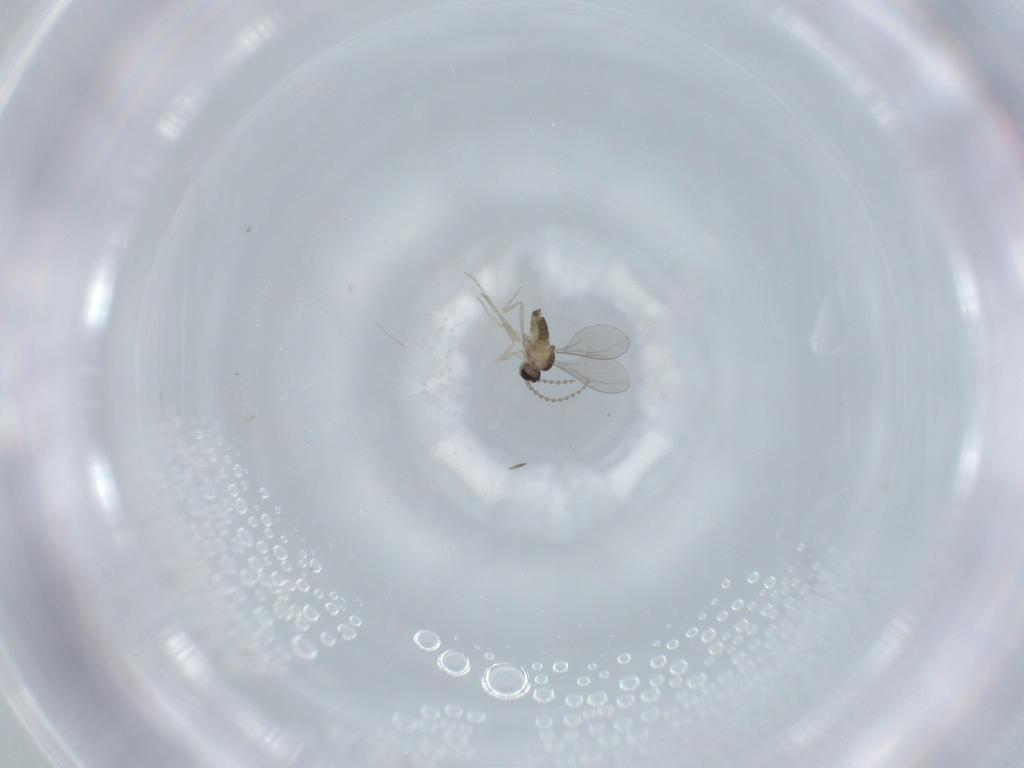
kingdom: Animalia
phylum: Arthropoda
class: Insecta
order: Diptera
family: Cecidomyiidae
